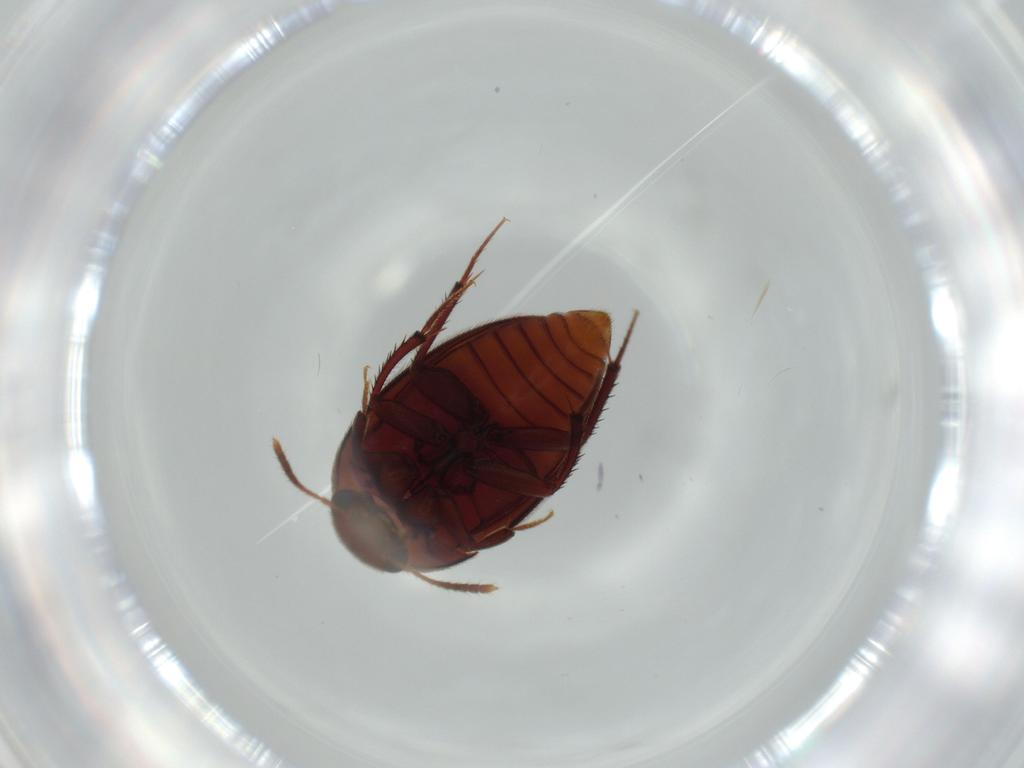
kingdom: Animalia
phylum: Arthropoda
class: Insecta
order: Coleoptera
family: Leiodidae
